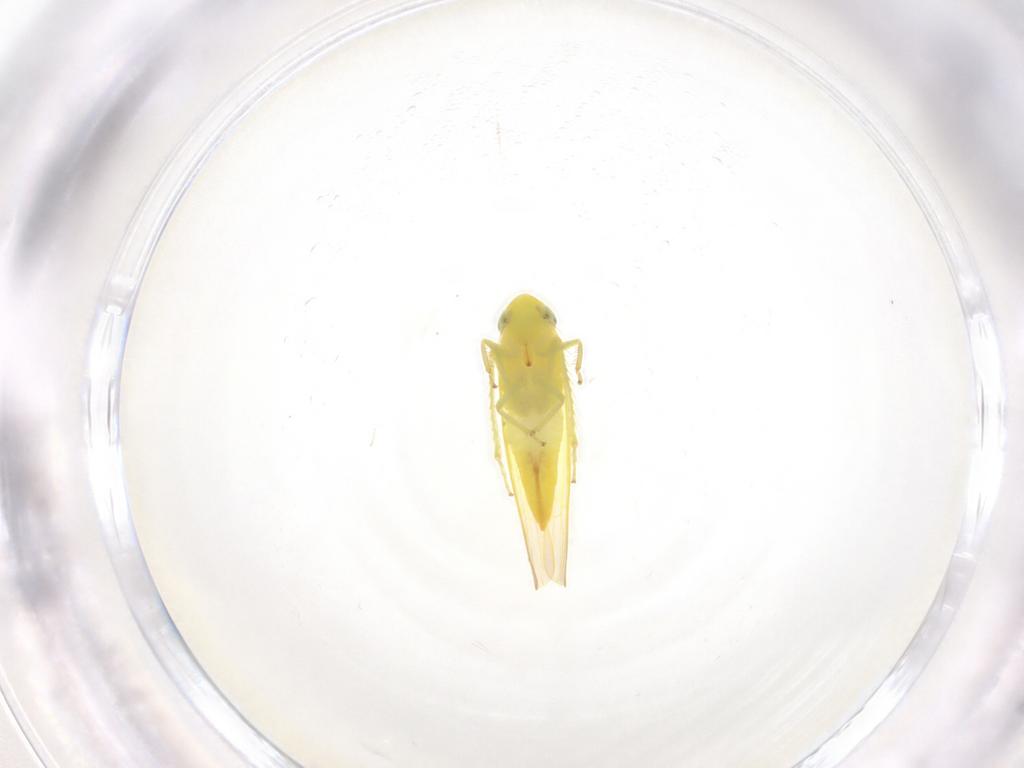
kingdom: Animalia
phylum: Arthropoda
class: Insecta
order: Hemiptera
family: Cicadellidae
